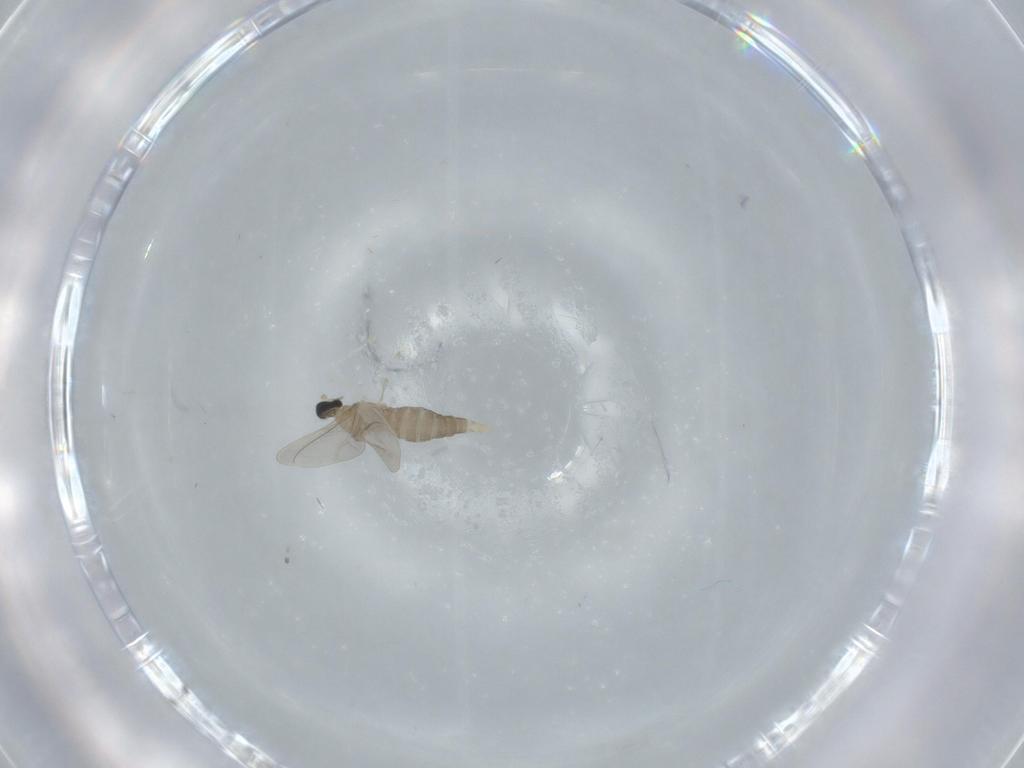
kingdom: Animalia
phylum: Arthropoda
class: Insecta
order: Diptera
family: Cecidomyiidae
